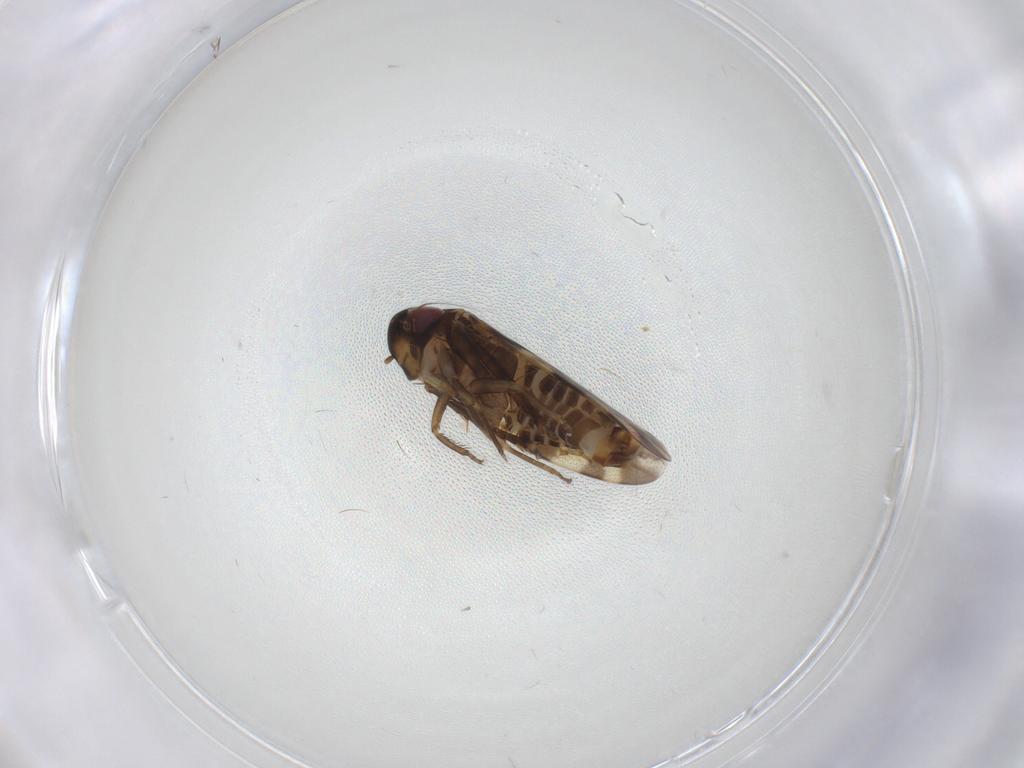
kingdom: Animalia
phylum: Arthropoda
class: Insecta
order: Hemiptera
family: Cicadellidae
